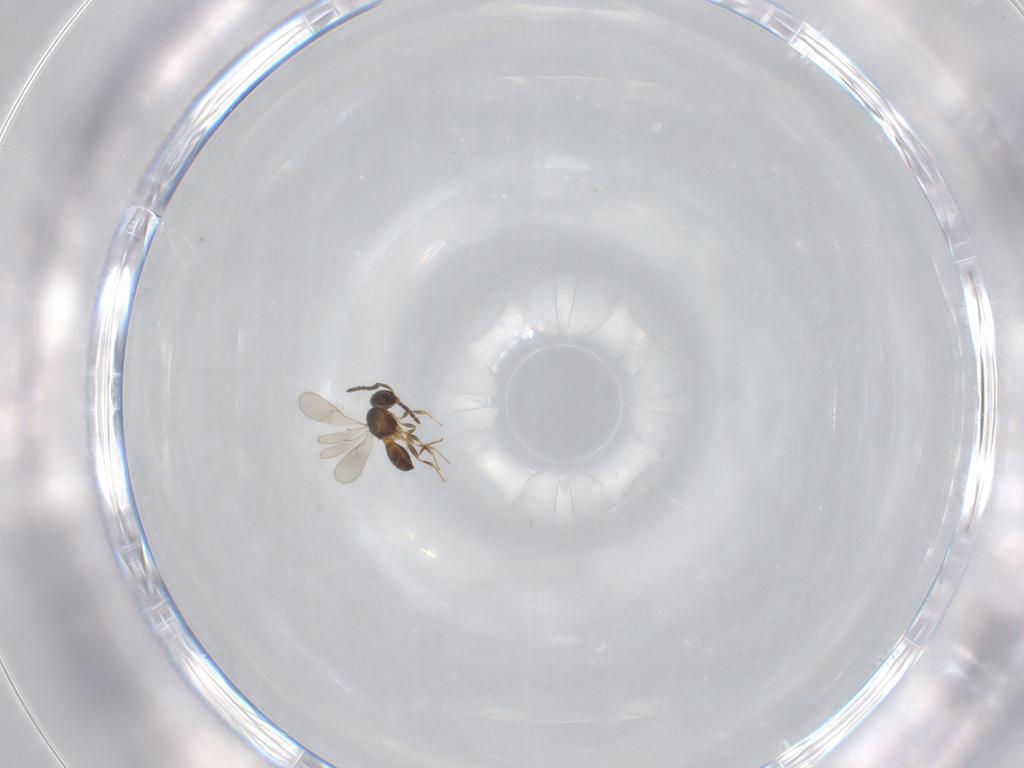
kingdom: Animalia
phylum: Arthropoda
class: Insecta
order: Hymenoptera
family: Scelionidae
